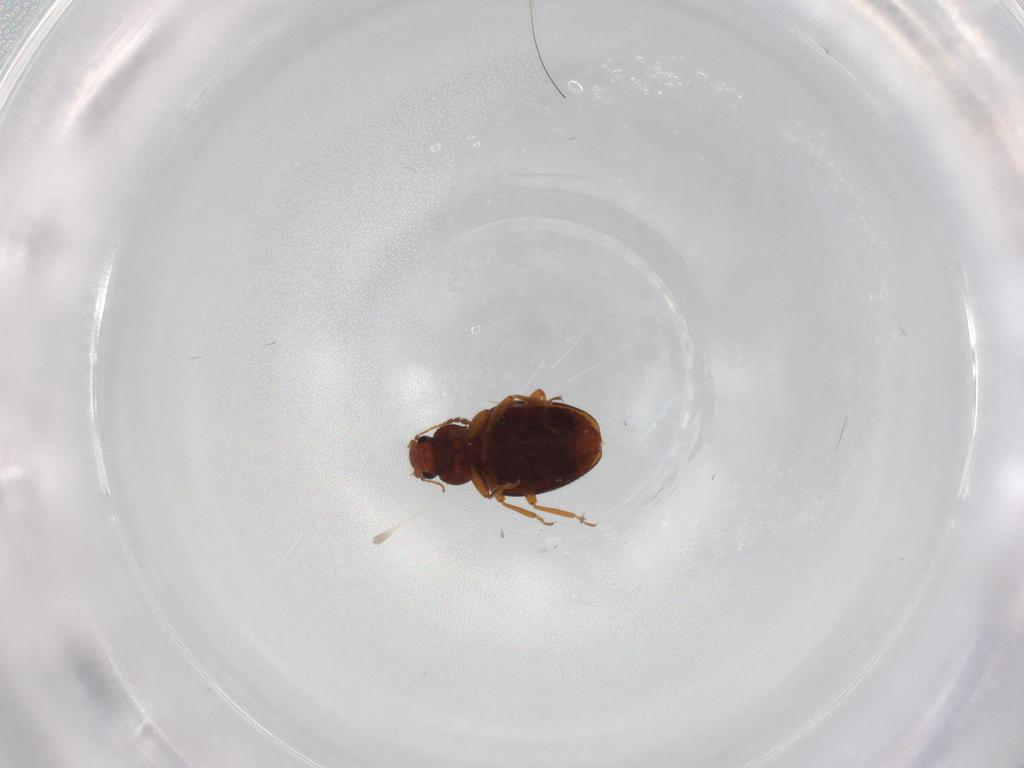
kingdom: Animalia
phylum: Arthropoda
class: Insecta
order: Coleoptera
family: Latridiidae
